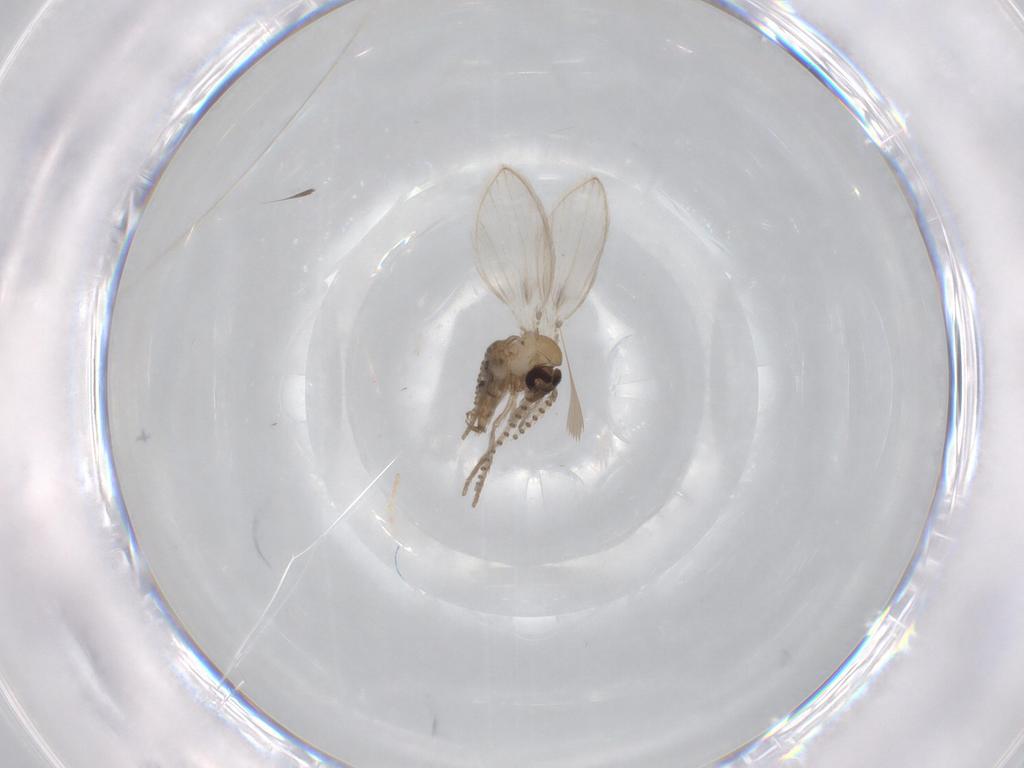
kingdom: Animalia
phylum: Arthropoda
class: Insecta
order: Diptera
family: Psychodidae
